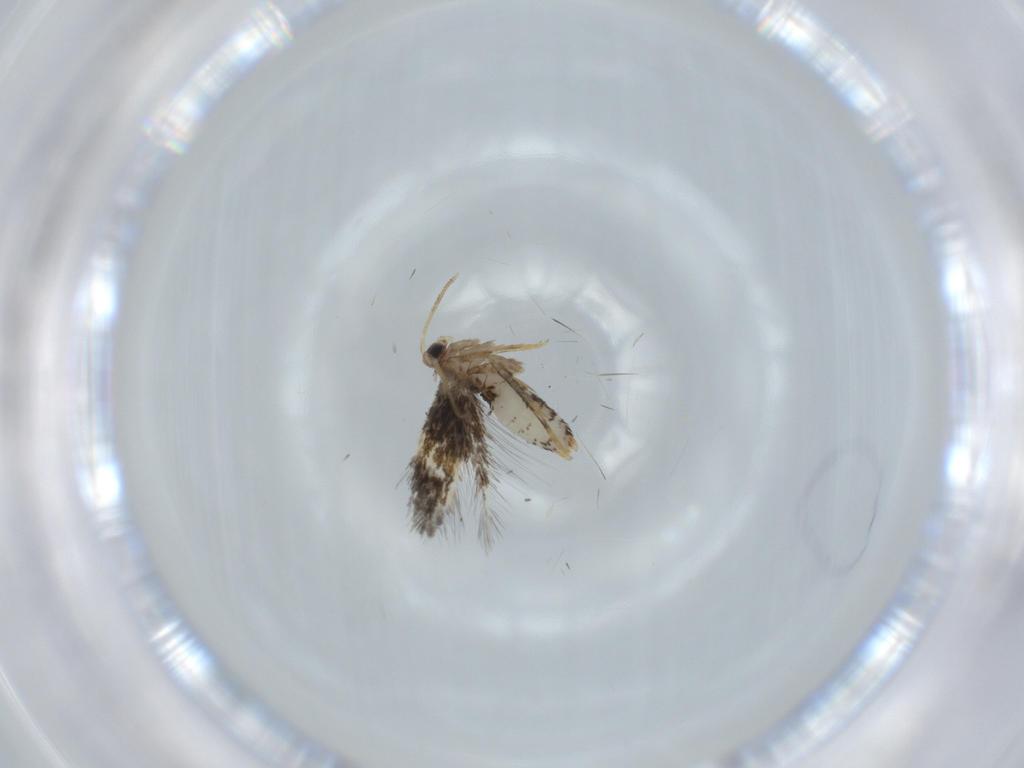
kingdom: Animalia
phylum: Arthropoda
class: Insecta
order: Lepidoptera
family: Nepticulidae
